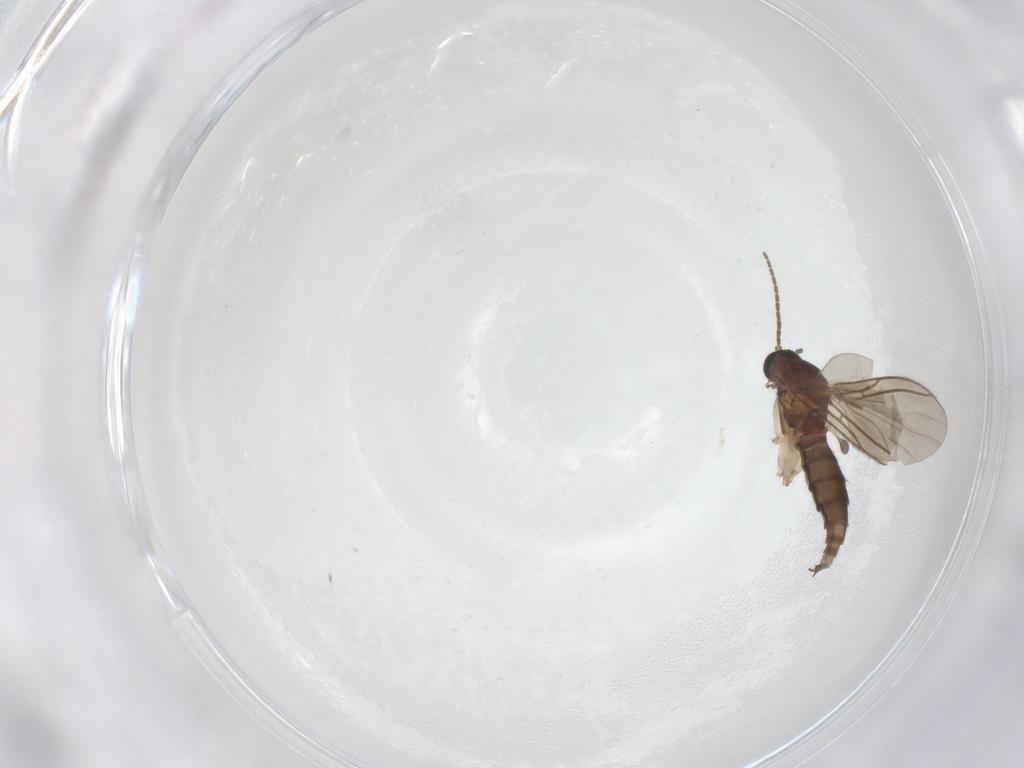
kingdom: Animalia
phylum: Arthropoda
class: Insecta
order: Diptera
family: Sciaridae
